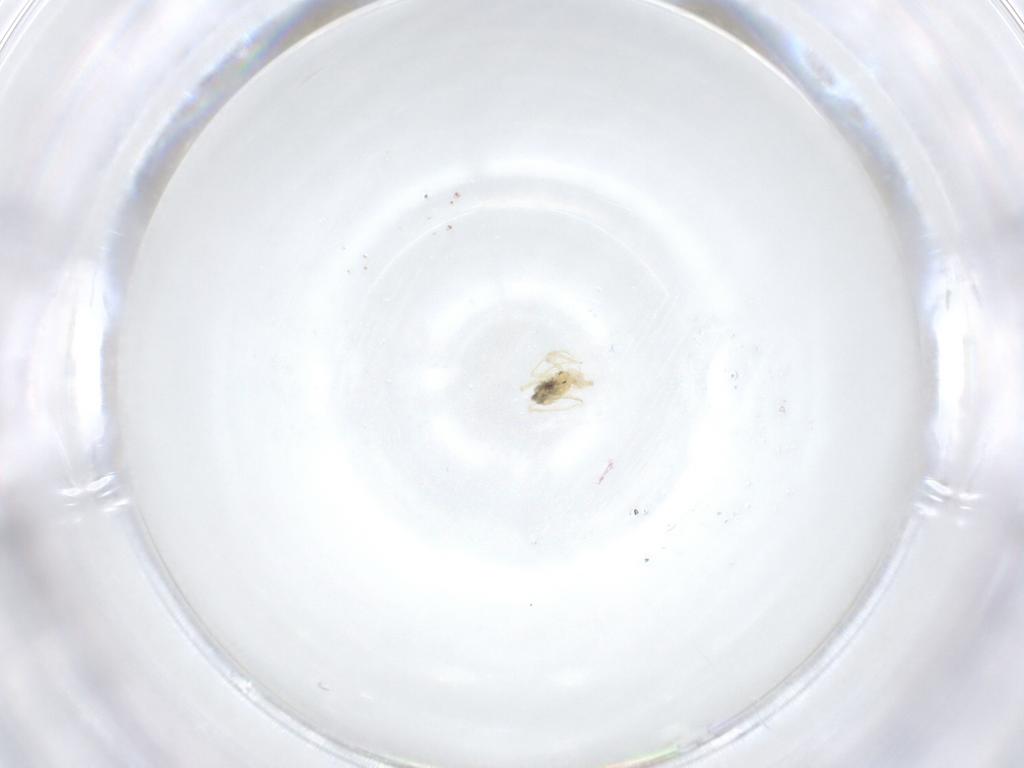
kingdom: Animalia
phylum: Arthropoda
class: Arachnida
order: Trombidiformes
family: Anystidae
